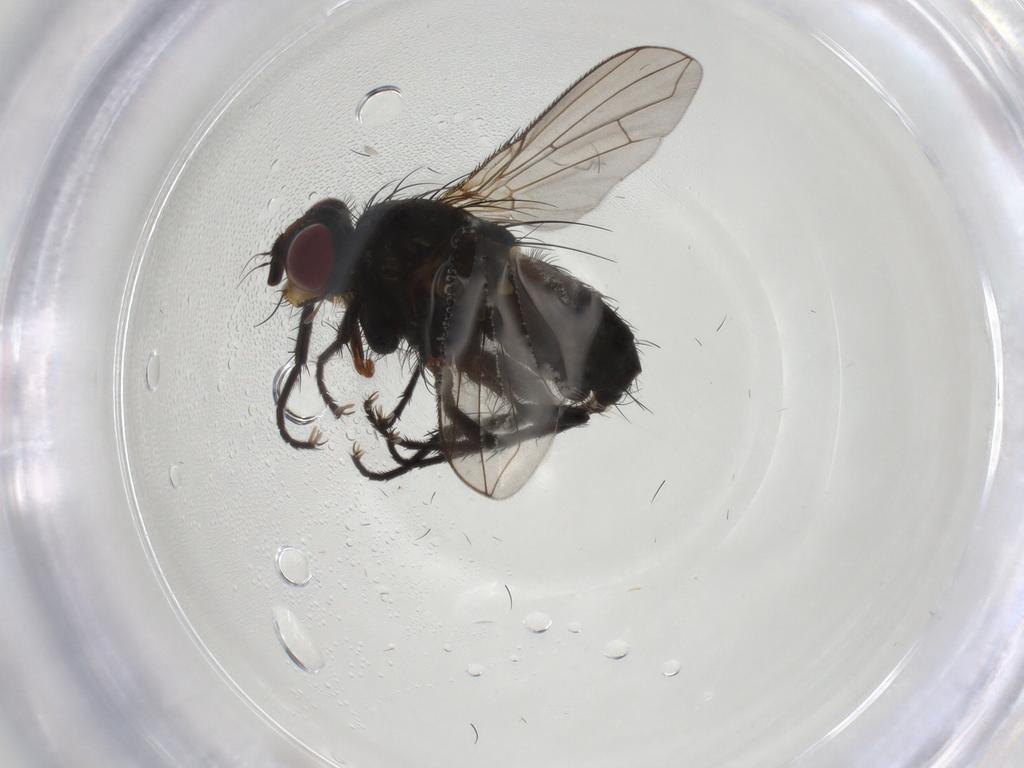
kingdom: Animalia
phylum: Arthropoda
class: Insecta
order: Diptera
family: Calliphoridae
